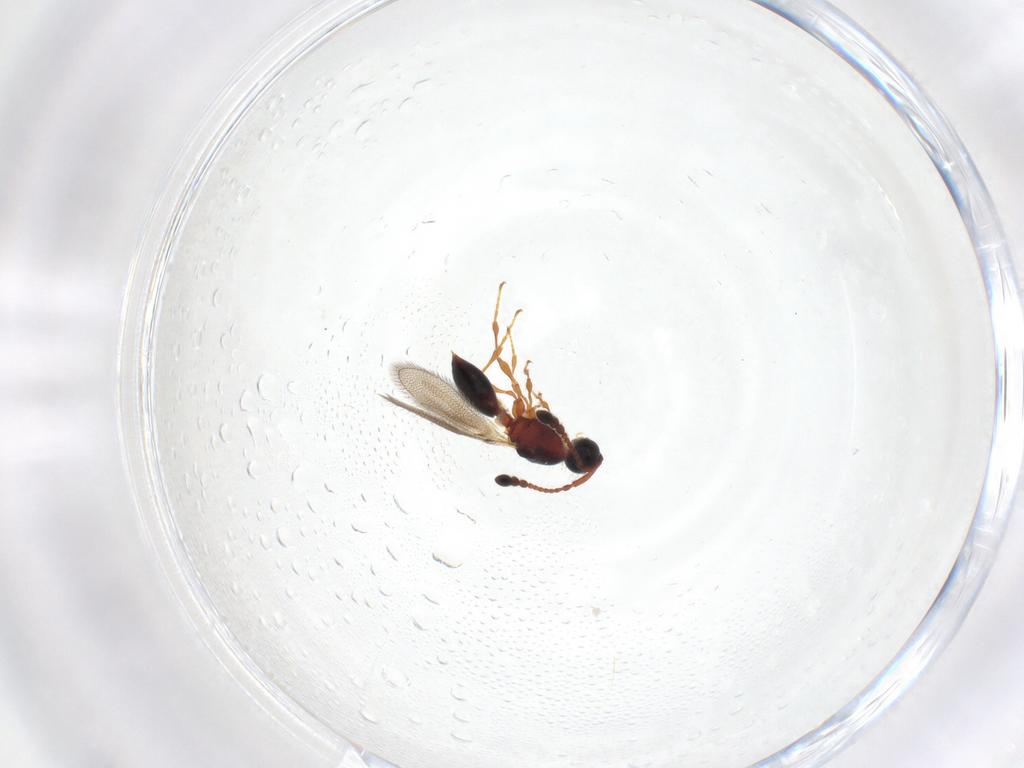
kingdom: Animalia
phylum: Arthropoda
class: Insecta
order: Hymenoptera
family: Diapriidae
